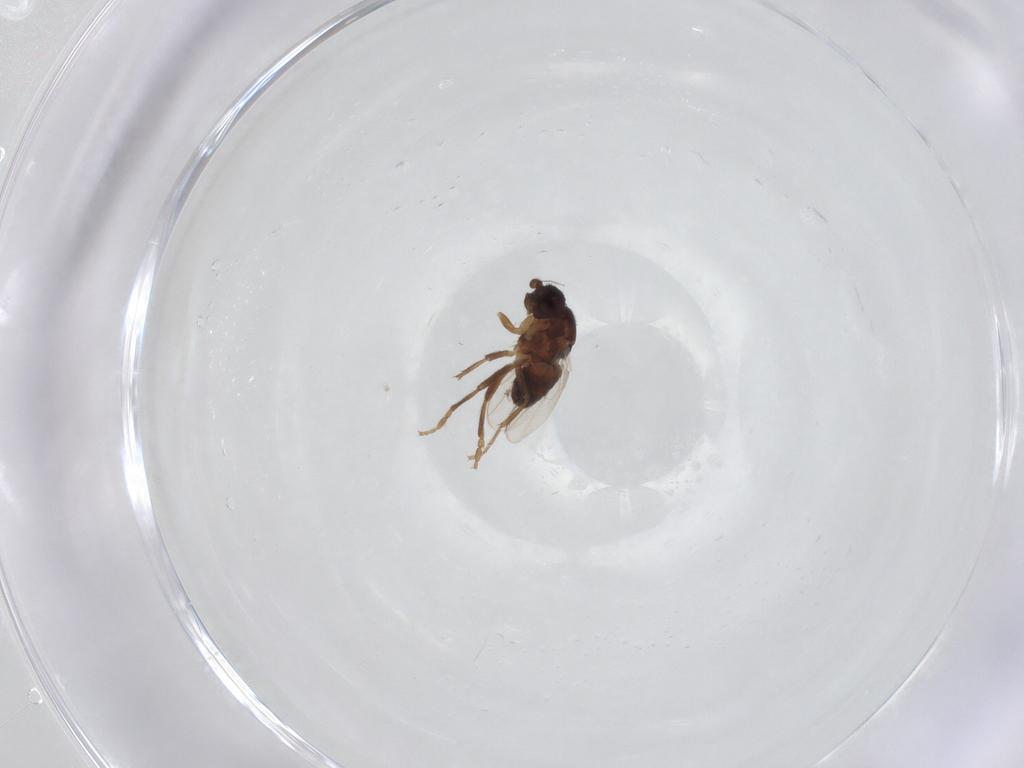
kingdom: Animalia
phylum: Arthropoda
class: Insecta
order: Diptera
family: Sphaeroceridae
